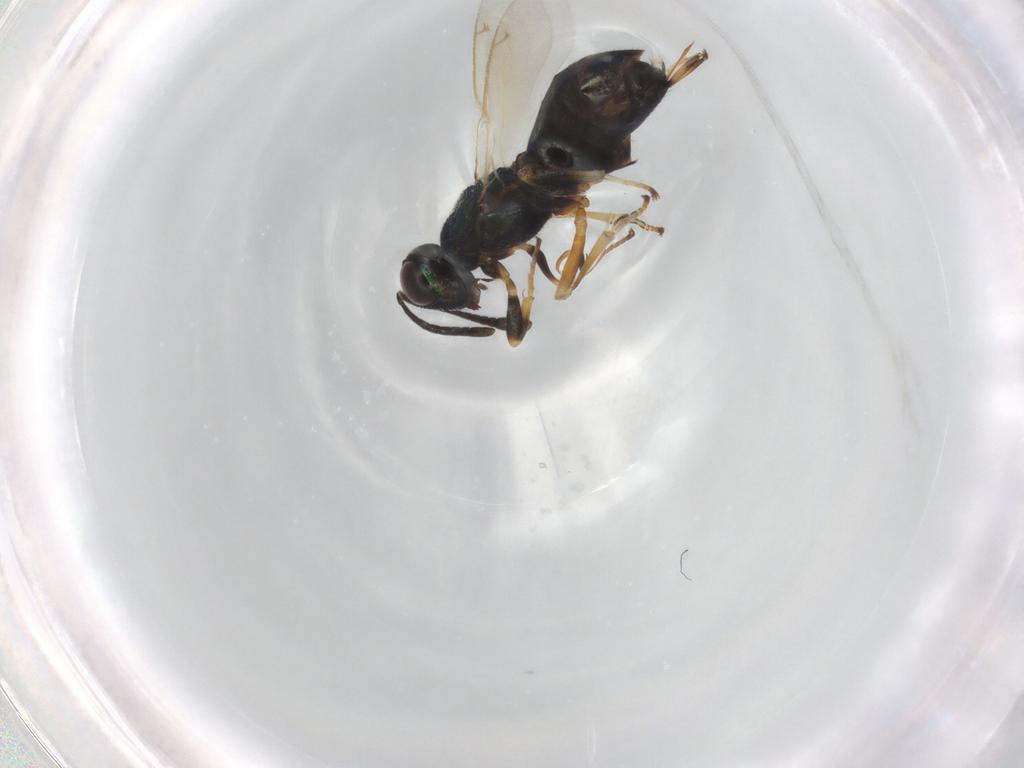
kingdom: Animalia
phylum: Arthropoda
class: Insecta
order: Hymenoptera
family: Eupelmidae
